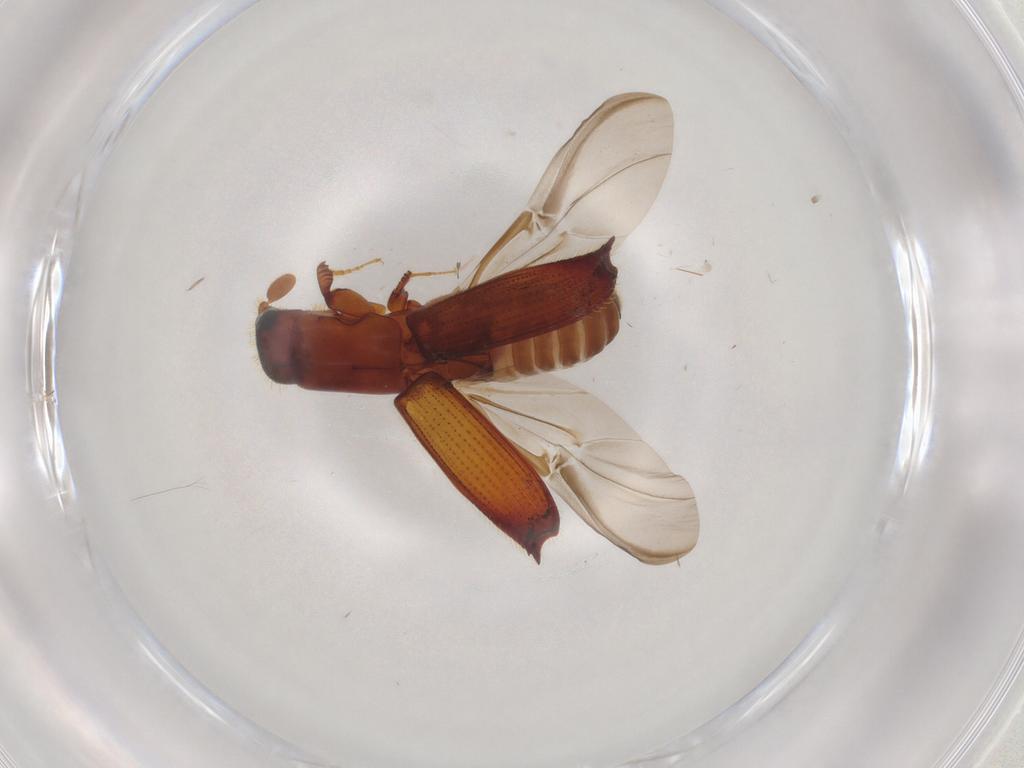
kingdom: Animalia
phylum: Arthropoda
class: Insecta
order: Coleoptera
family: Curculionidae
